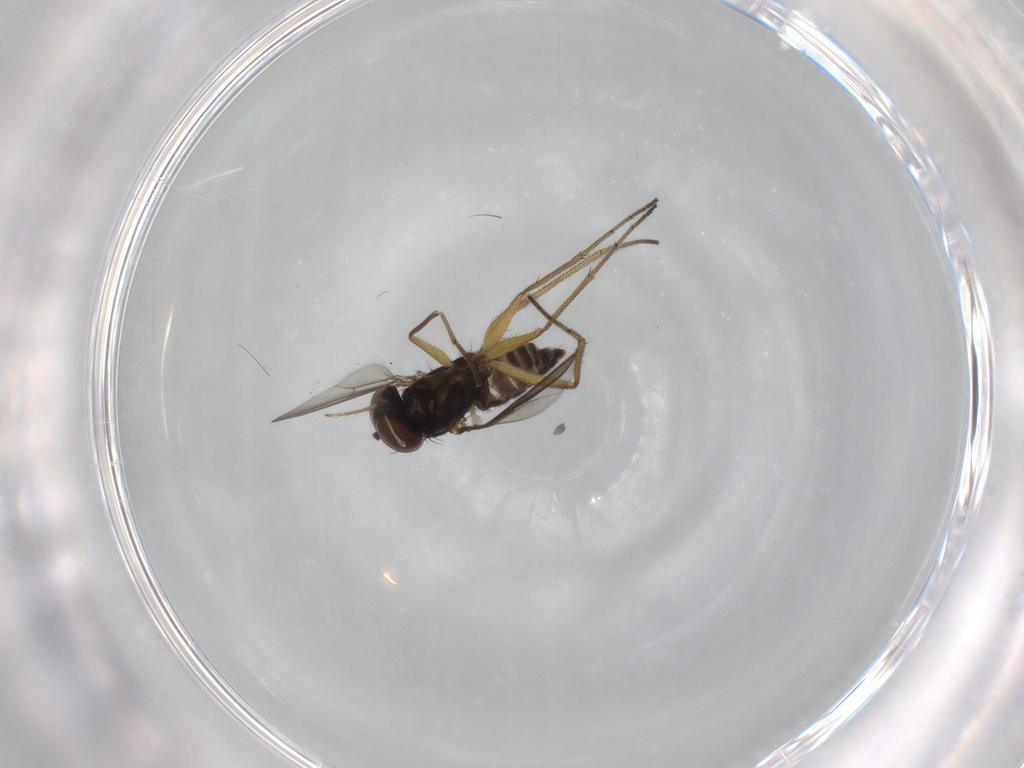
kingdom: Animalia
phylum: Arthropoda
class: Insecta
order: Diptera
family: Dolichopodidae
